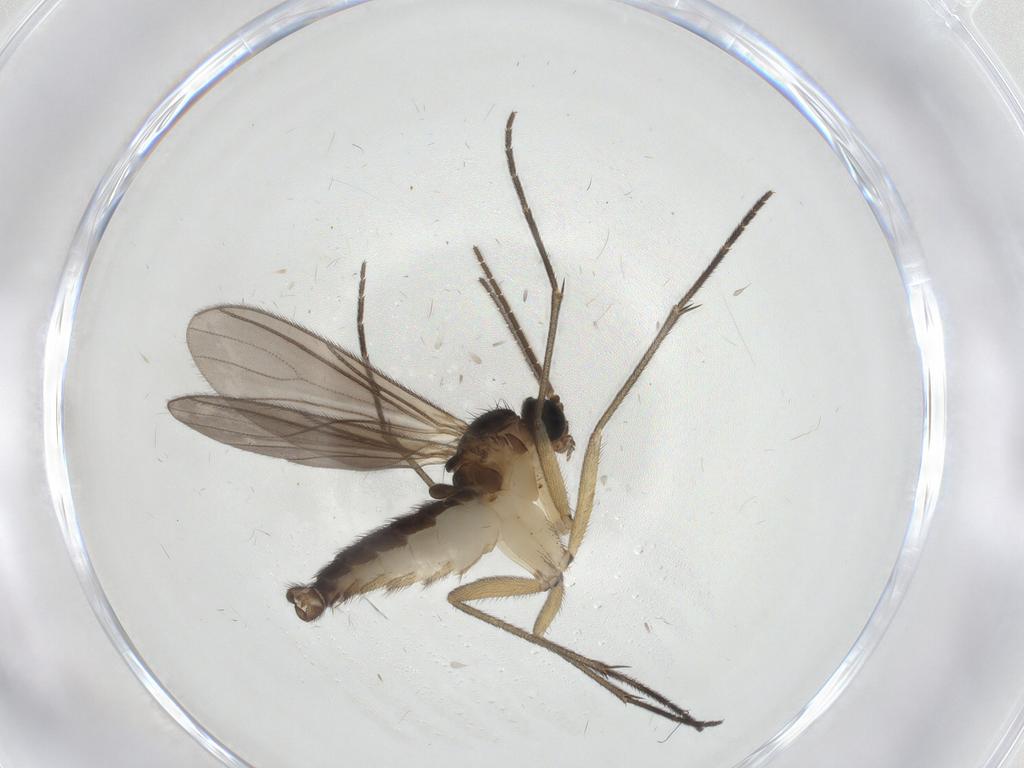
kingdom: Animalia
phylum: Arthropoda
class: Insecta
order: Diptera
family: Sciaridae
